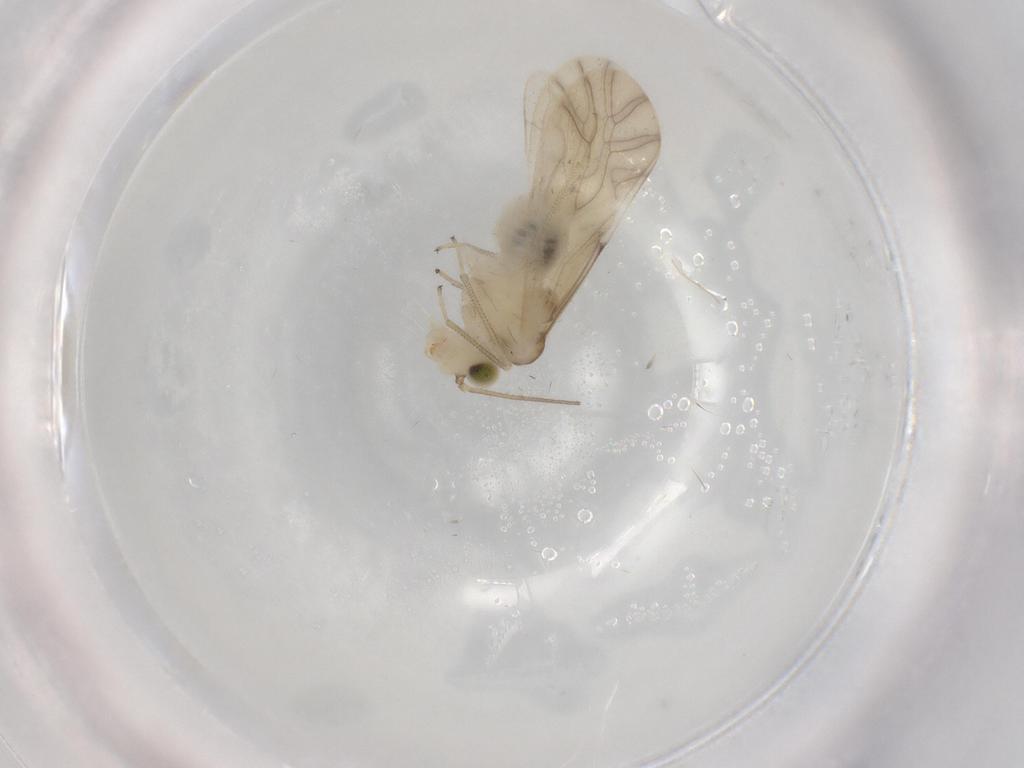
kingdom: Animalia
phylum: Arthropoda
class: Insecta
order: Psocodea
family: Caeciliusidae
